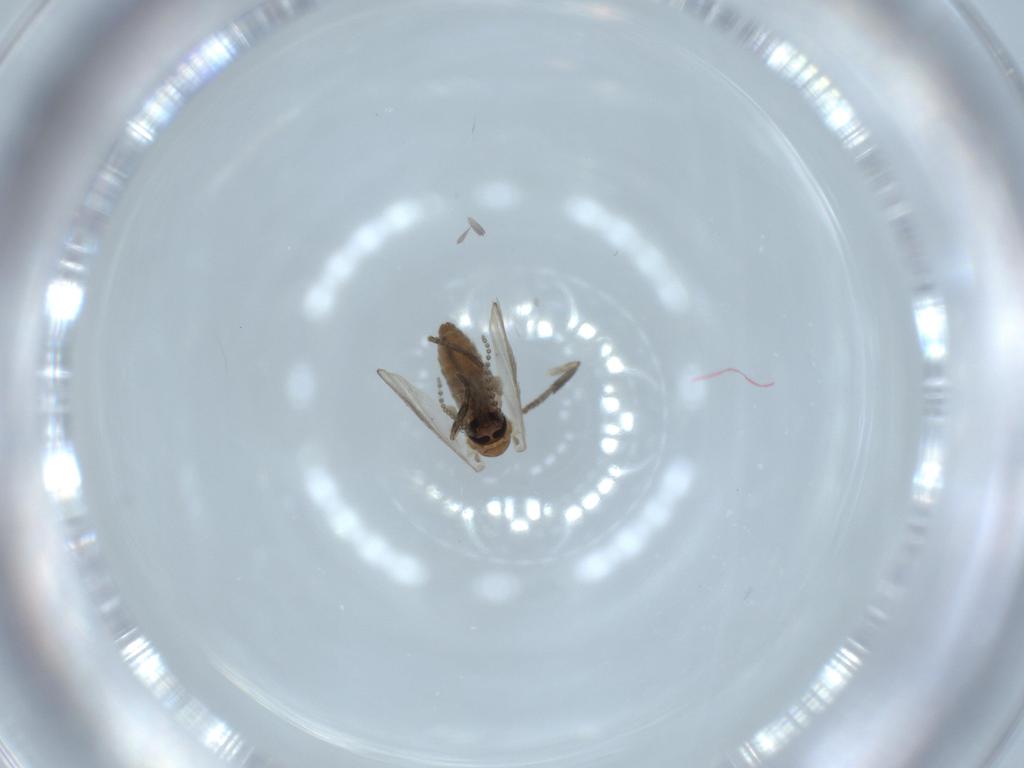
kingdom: Animalia
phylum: Arthropoda
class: Insecta
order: Diptera
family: Psychodidae
